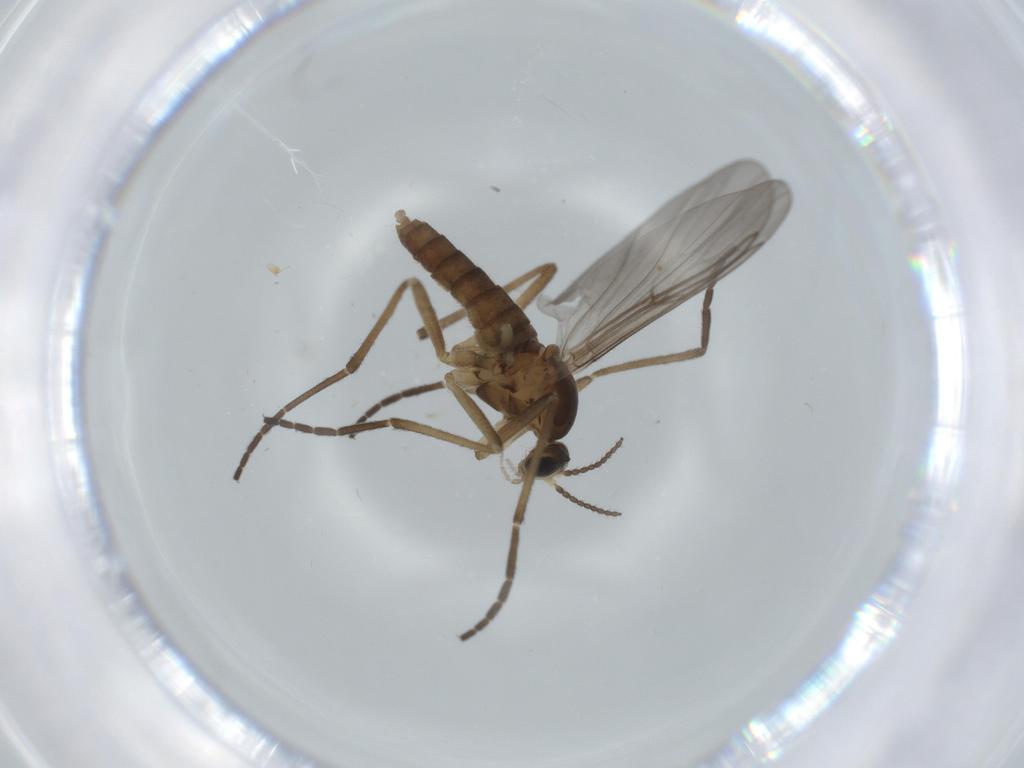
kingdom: Animalia
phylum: Arthropoda
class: Insecta
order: Diptera
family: Cecidomyiidae
